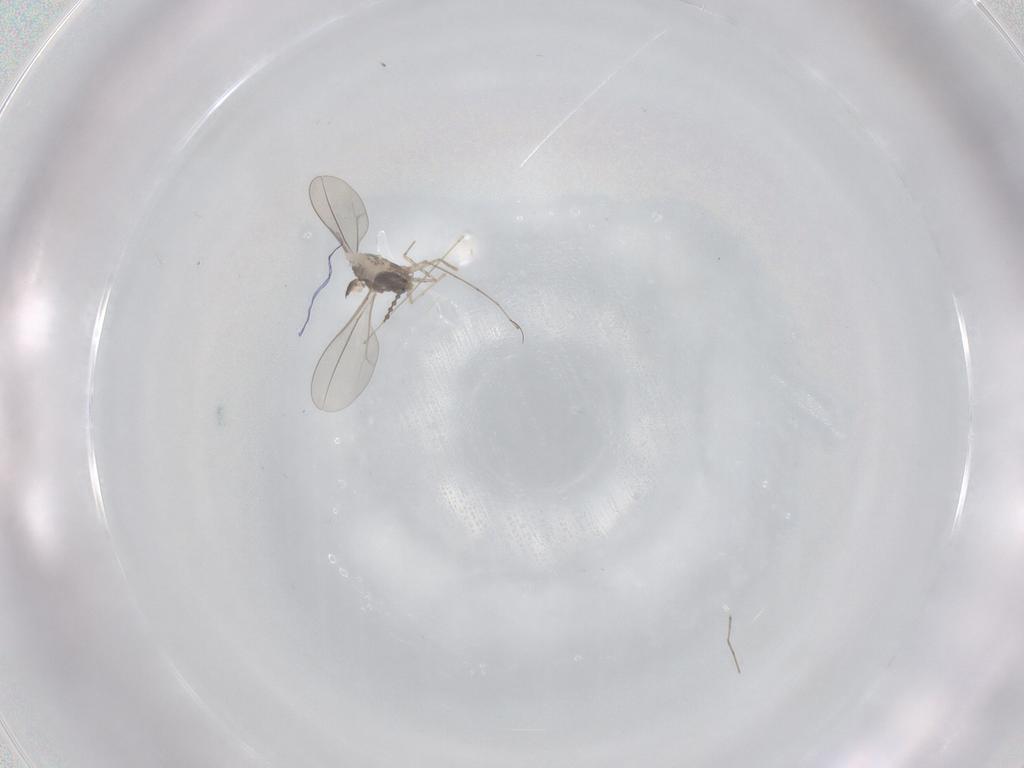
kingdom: Animalia
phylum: Arthropoda
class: Insecta
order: Diptera
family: Cecidomyiidae
